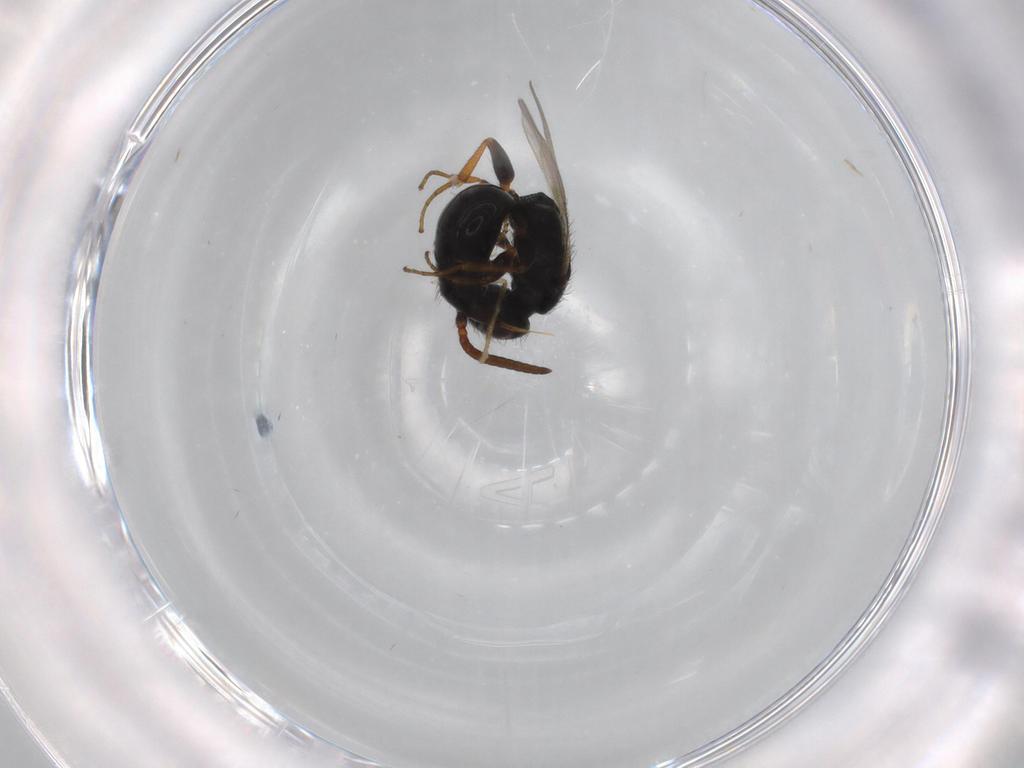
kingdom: Animalia
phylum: Arthropoda
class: Insecta
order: Hymenoptera
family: Bethylidae
